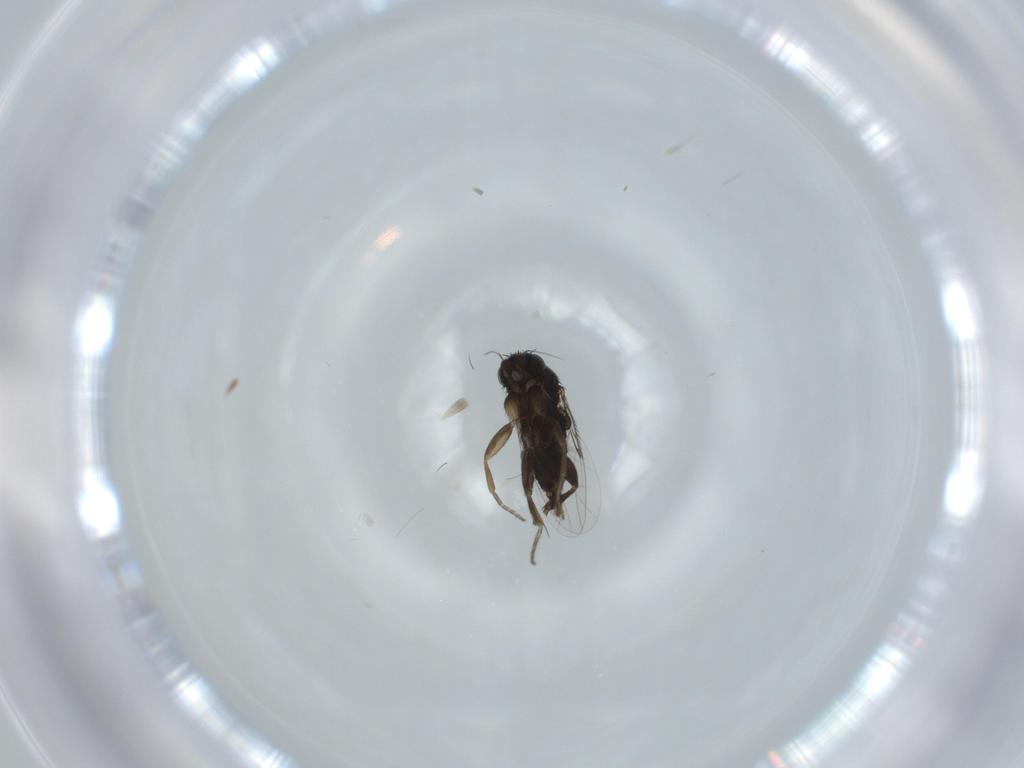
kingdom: Animalia
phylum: Arthropoda
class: Insecta
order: Diptera
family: Phoridae
